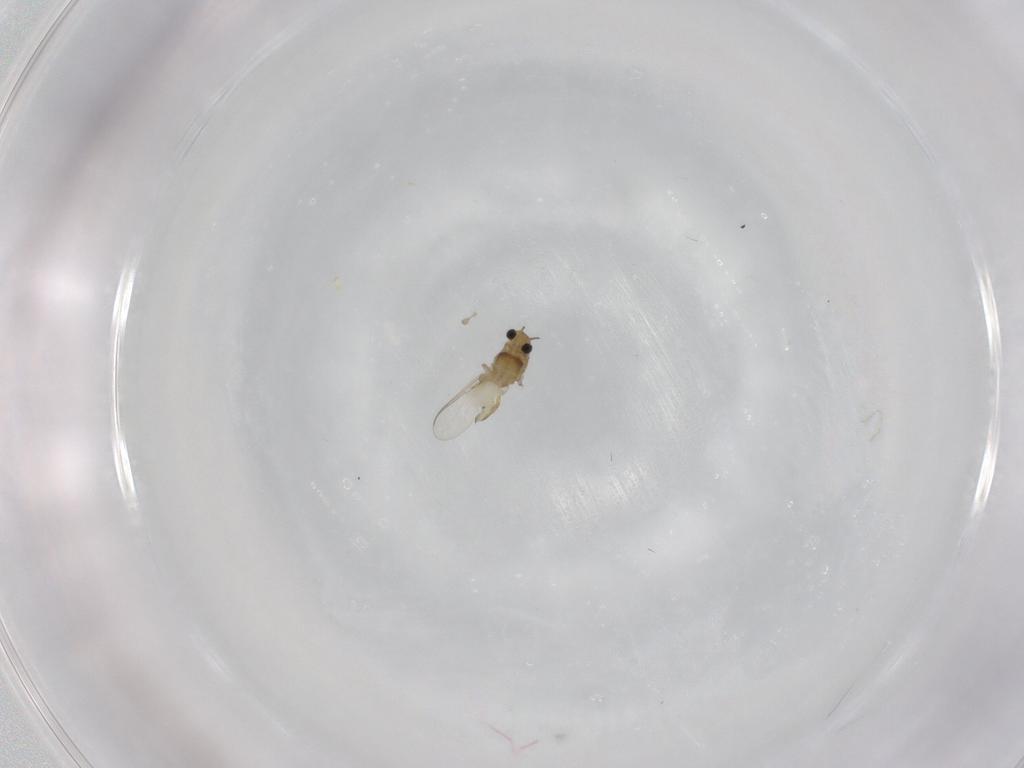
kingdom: Animalia
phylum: Arthropoda
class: Insecta
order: Diptera
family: Chironomidae
